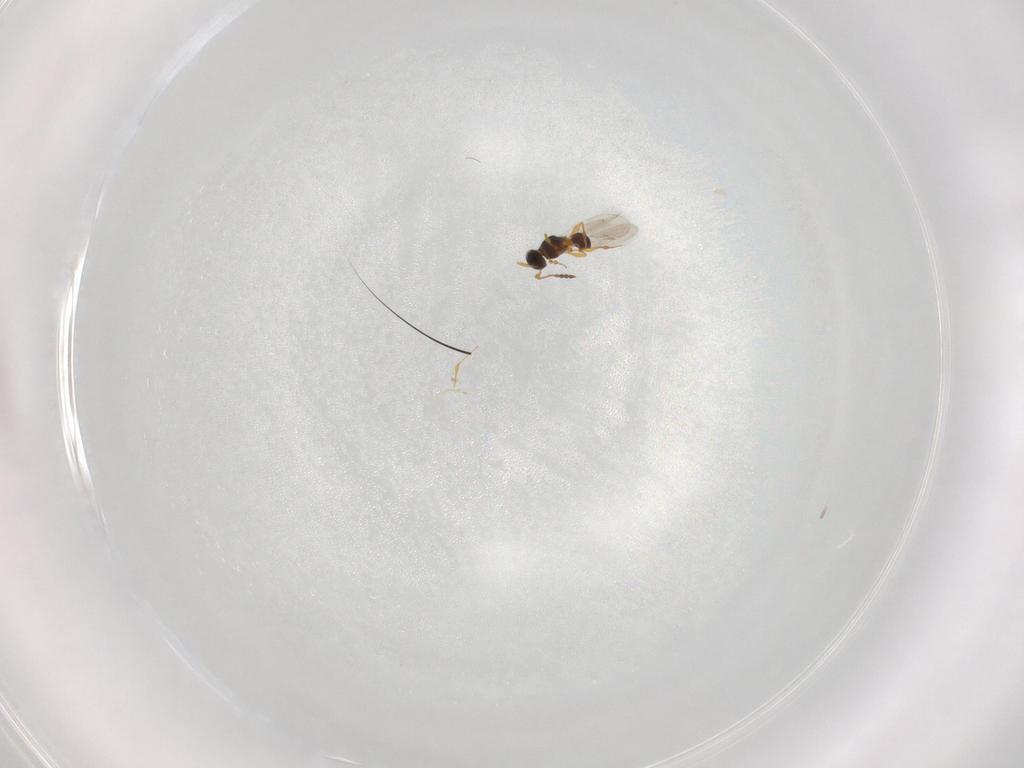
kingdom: Animalia
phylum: Arthropoda
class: Insecta
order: Hymenoptera
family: Platygastridae
